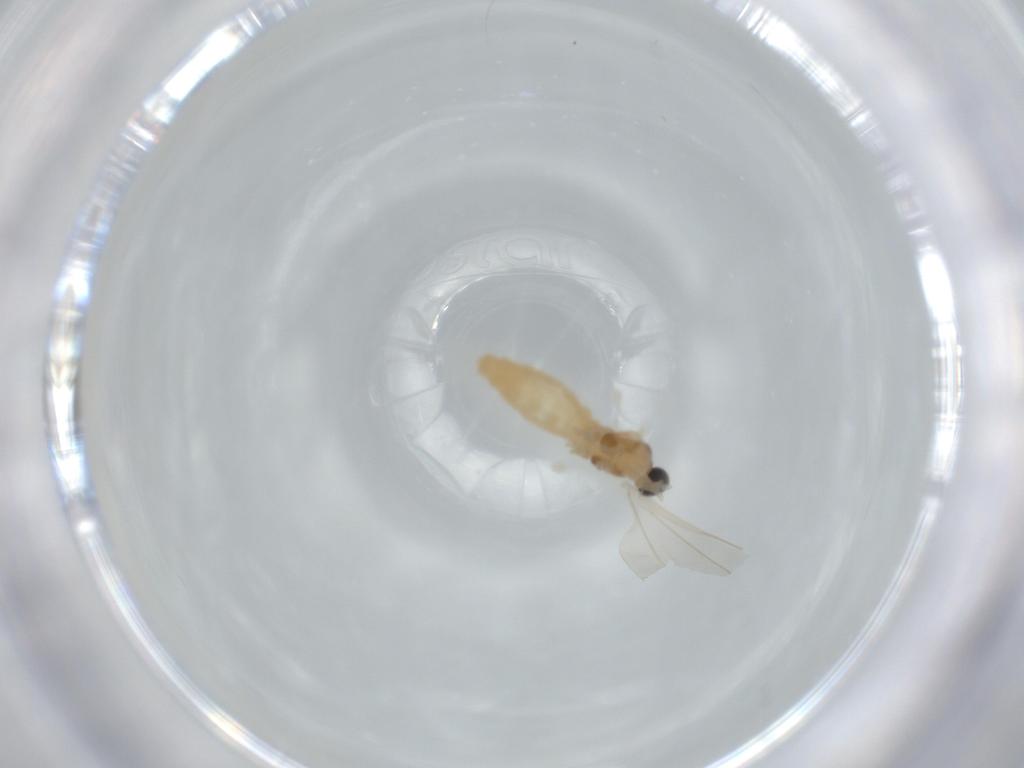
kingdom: Animalia
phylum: Arthropoda
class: Insecta
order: Diptera
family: Cecidomyiidae
